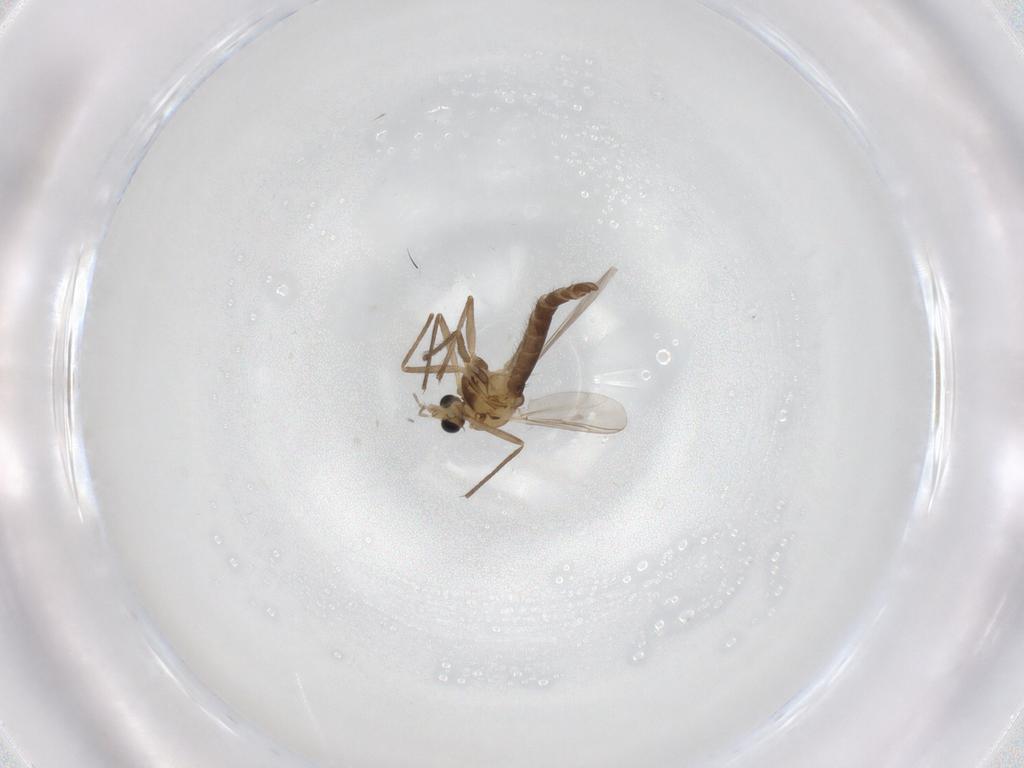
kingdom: Animalia
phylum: Arthropoda
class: Insecta
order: Diptera
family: Chironomidae
